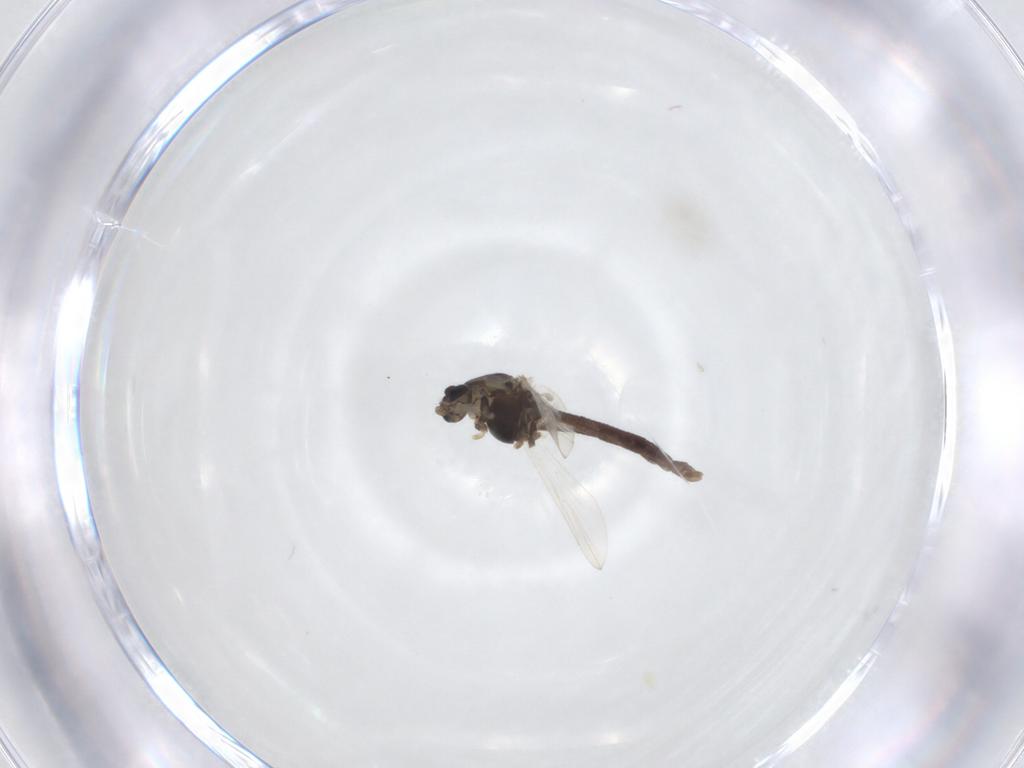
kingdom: Animalia
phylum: Arthropoda
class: Insecta
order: Diptera
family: Chironomidae
